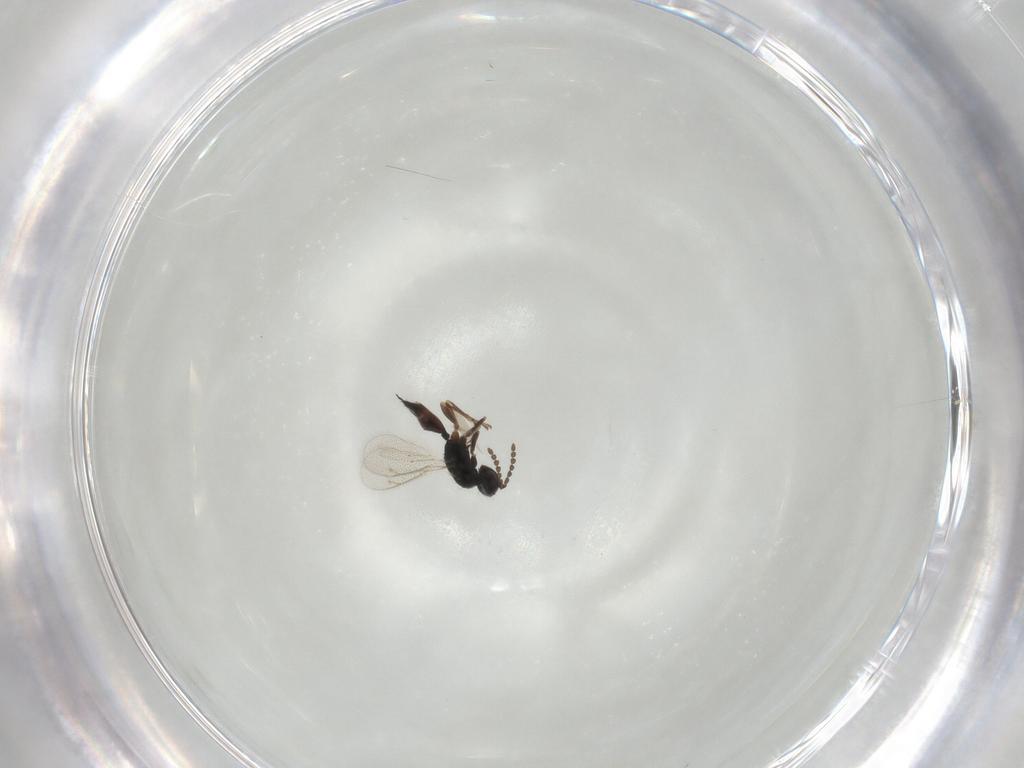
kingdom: Animalia
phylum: Arthropoda
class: Insecta
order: Hymenoptera
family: Eulophidae
